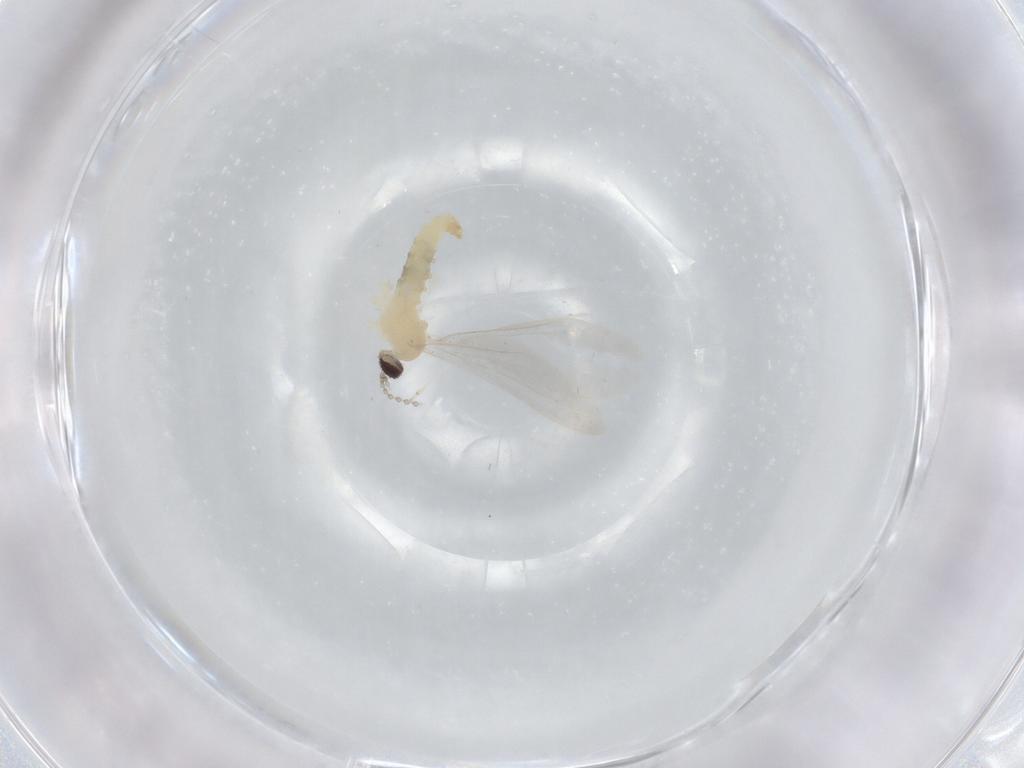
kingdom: Animalia
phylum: Arthropoda
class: Insecta
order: Diptera
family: Cecidomyiidae
